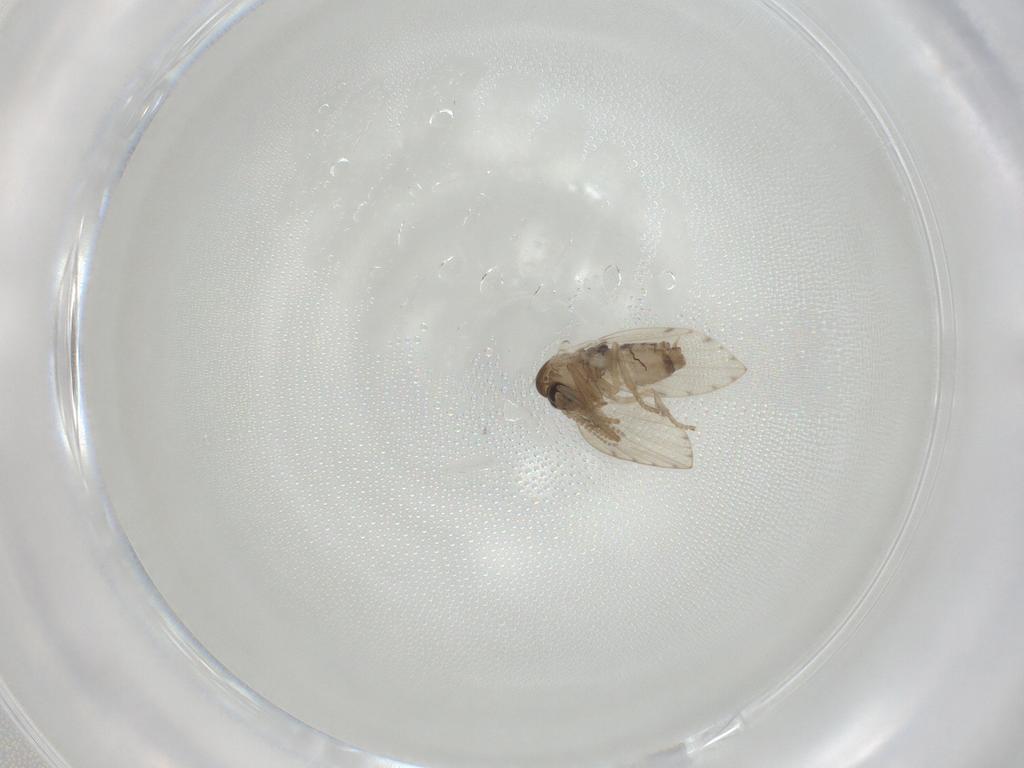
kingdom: Animalia
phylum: Arthropoda
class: Insecta
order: Diptera
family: Psychodidae
